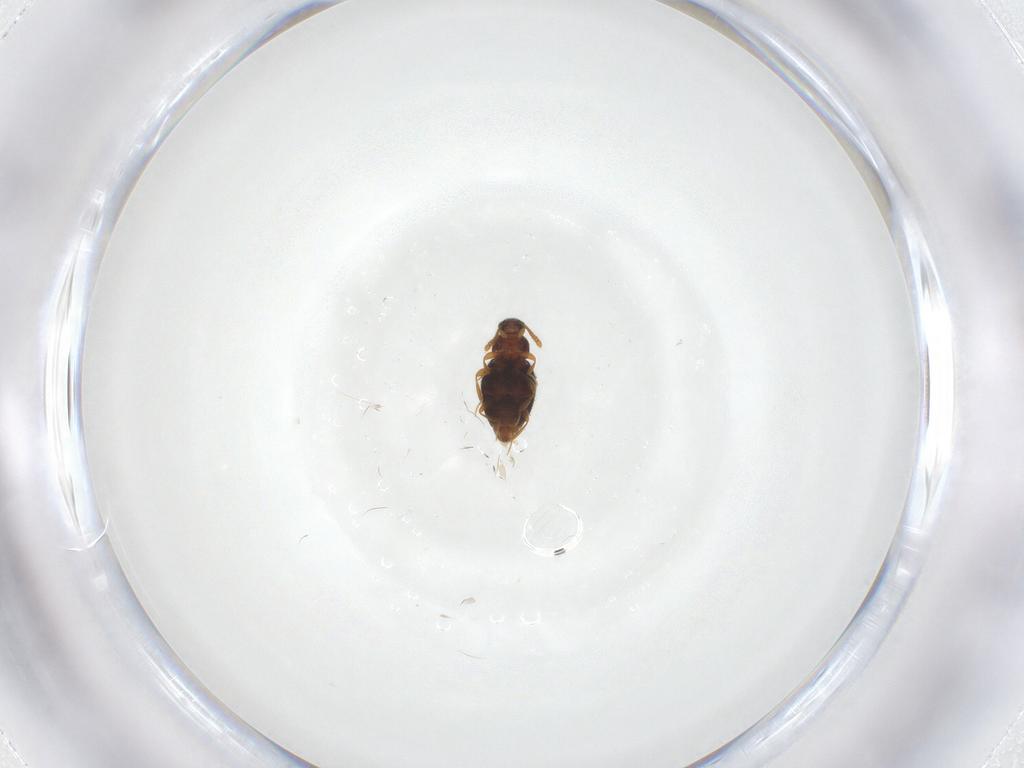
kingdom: Animalia
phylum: Arthropoda
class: Insecta
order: Coleoptera
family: Staphylinidae
